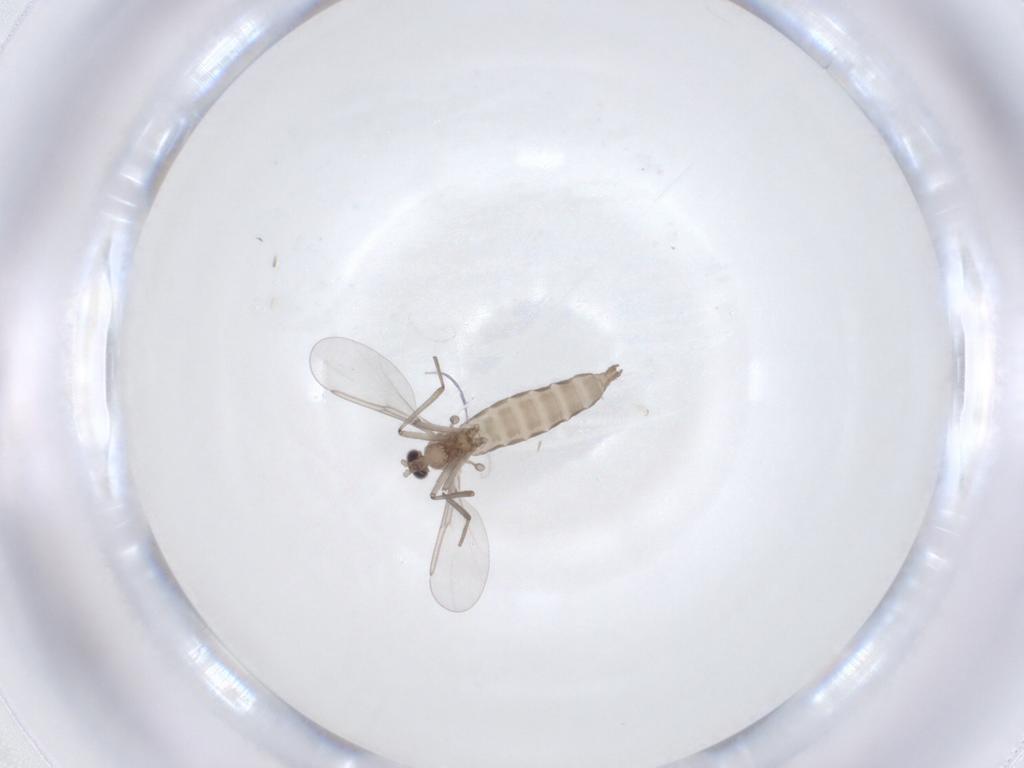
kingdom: Animalia
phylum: Arthropoda
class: Insecta
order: Diptera
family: Cecidomyiidae
